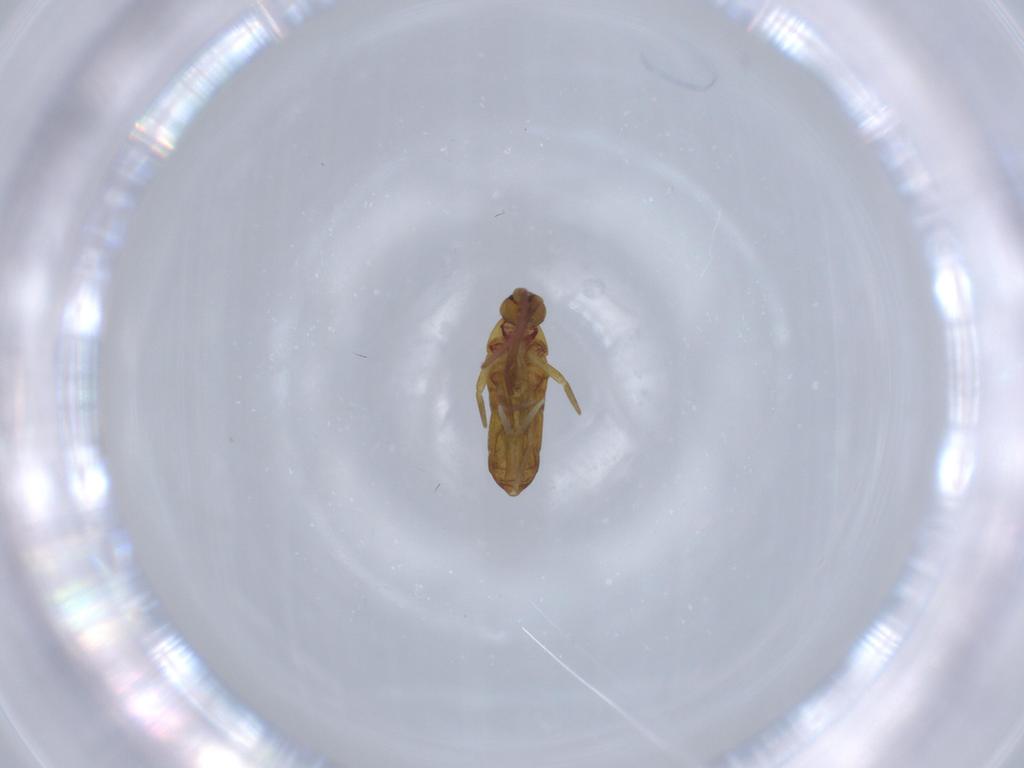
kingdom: Animalia
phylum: Arthropoda
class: Collembola
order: Entomobryomorpha
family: Tomoceridae
